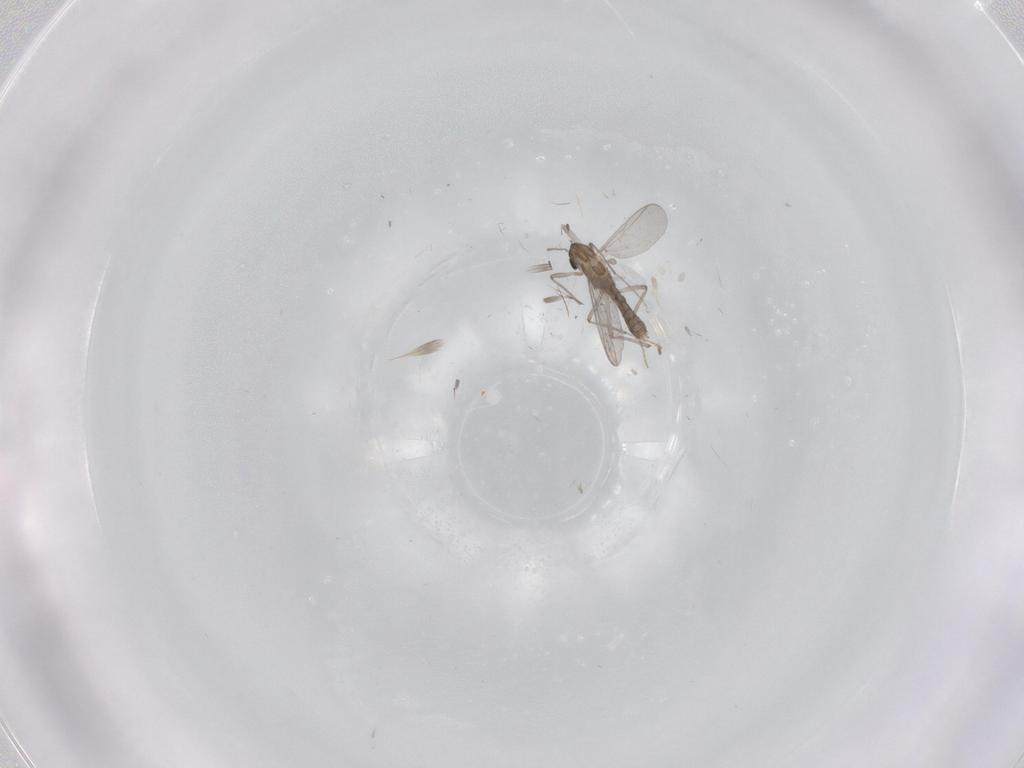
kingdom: Animalia
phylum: Arthropoda
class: Insecta
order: Diptera
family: Chironomidae
